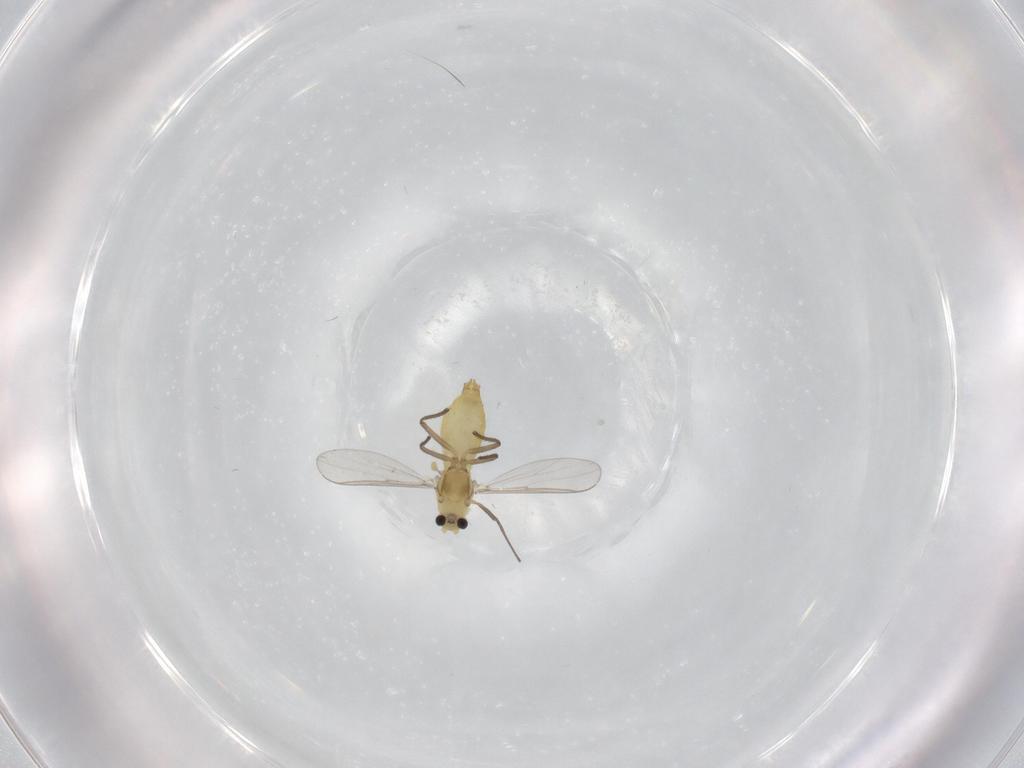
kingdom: Animalia
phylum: Arthropoda
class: Insecta
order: Diptera
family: Chironomidae
